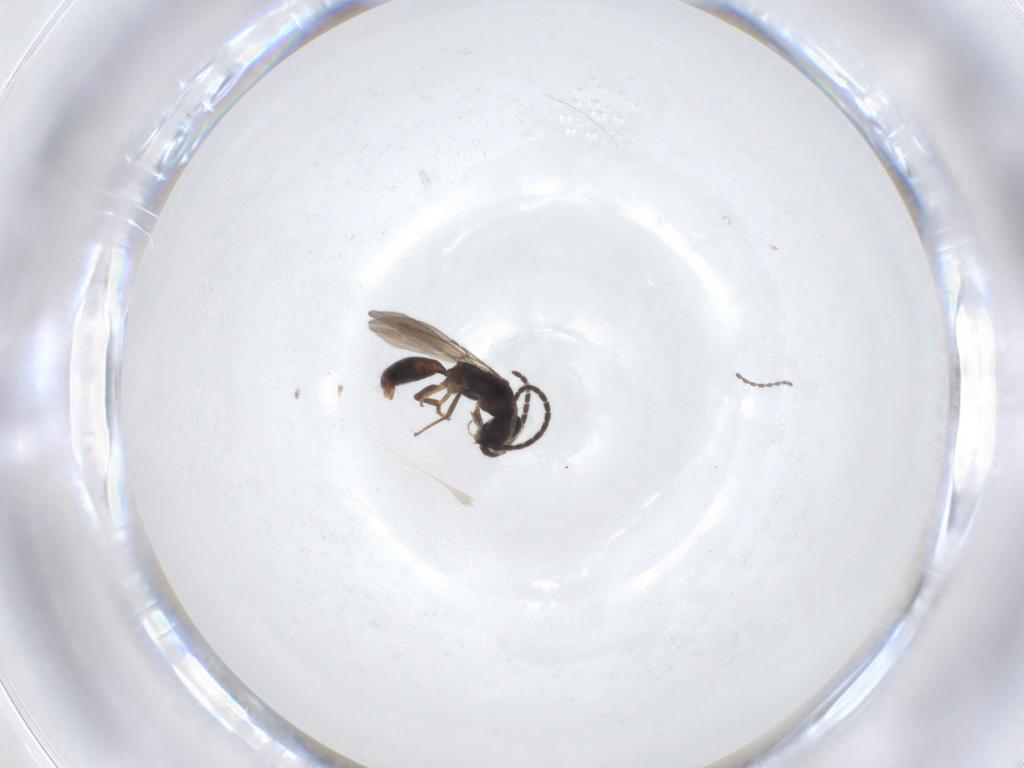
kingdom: Animalia
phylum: Arthropoda
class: Insecta
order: Hymenoptera
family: Bethylidae
